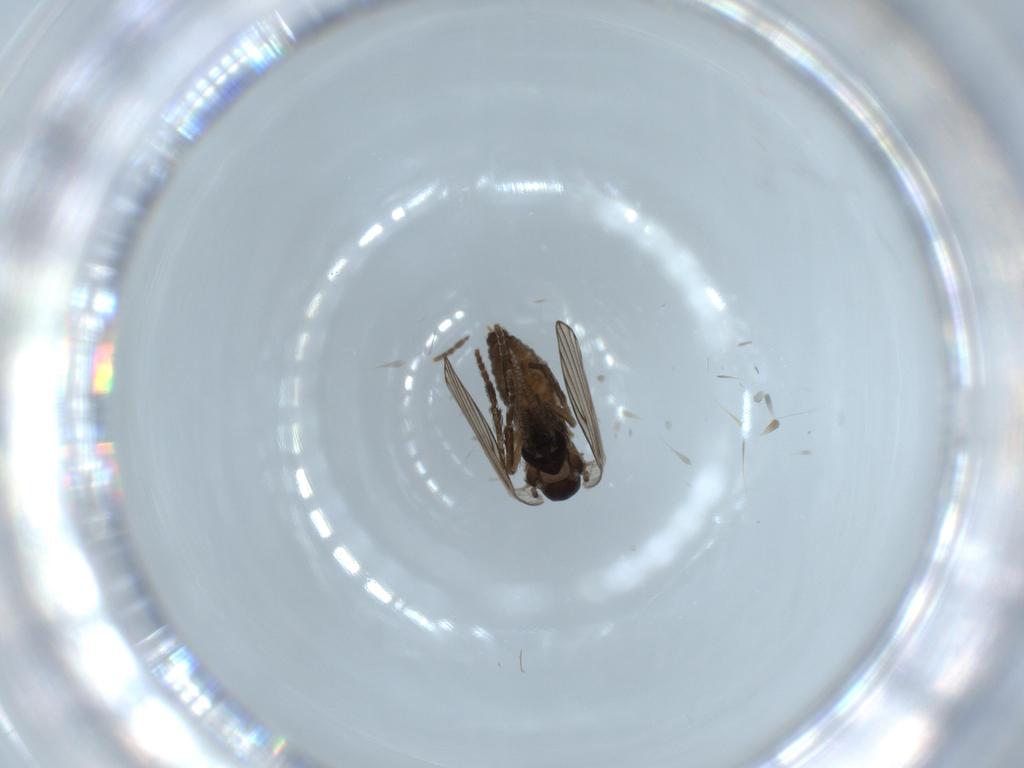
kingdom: Animalia
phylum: Arthropoda
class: Insecta
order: Diptera
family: Psychodidae
